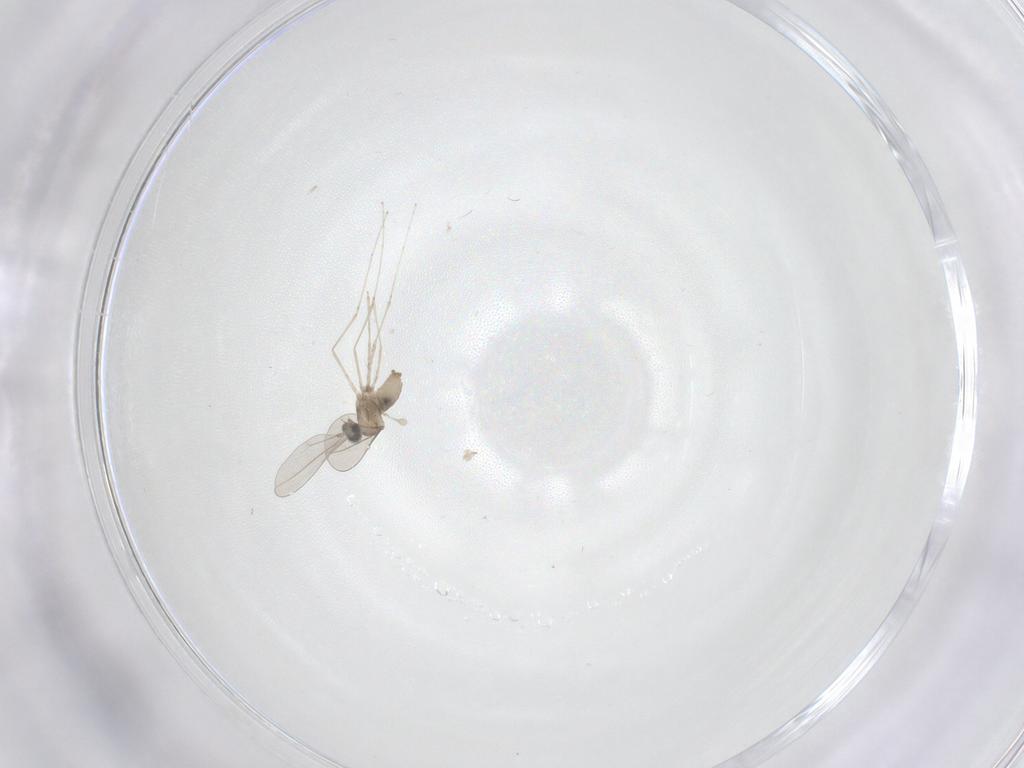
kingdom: Animalia
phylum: Arthropoda
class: Insecta
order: Diptera
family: Cecidomyiidae
